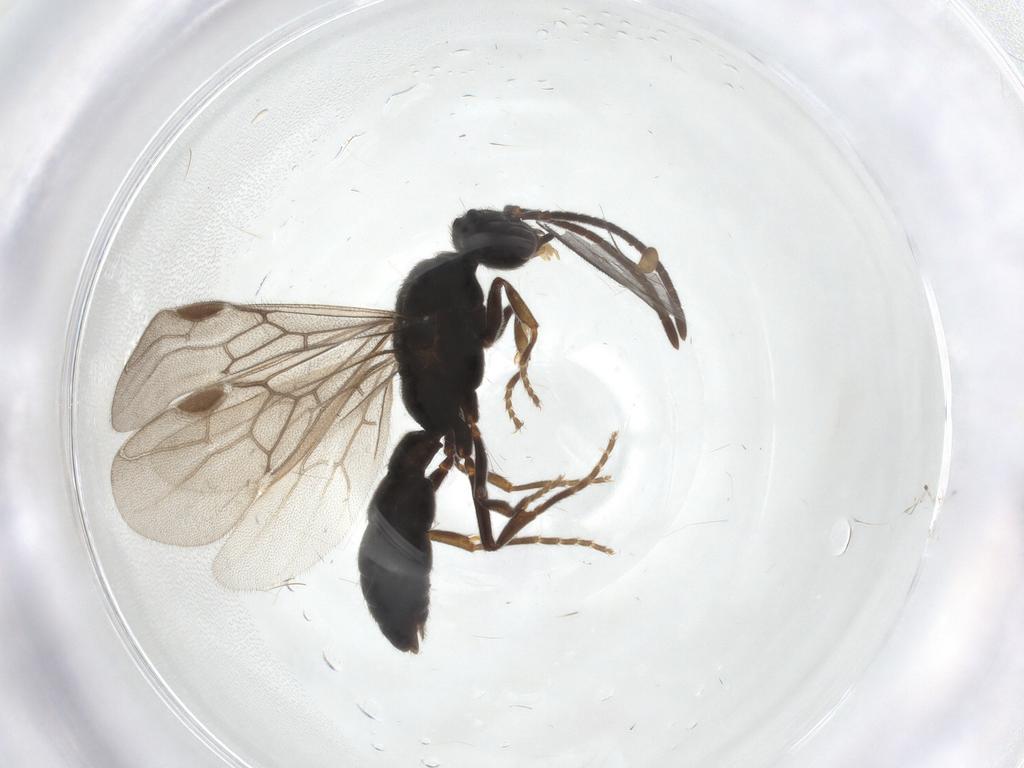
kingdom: Animalia
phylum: Arthropoda
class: Insecta
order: Hymenoptera
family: Formicidae
